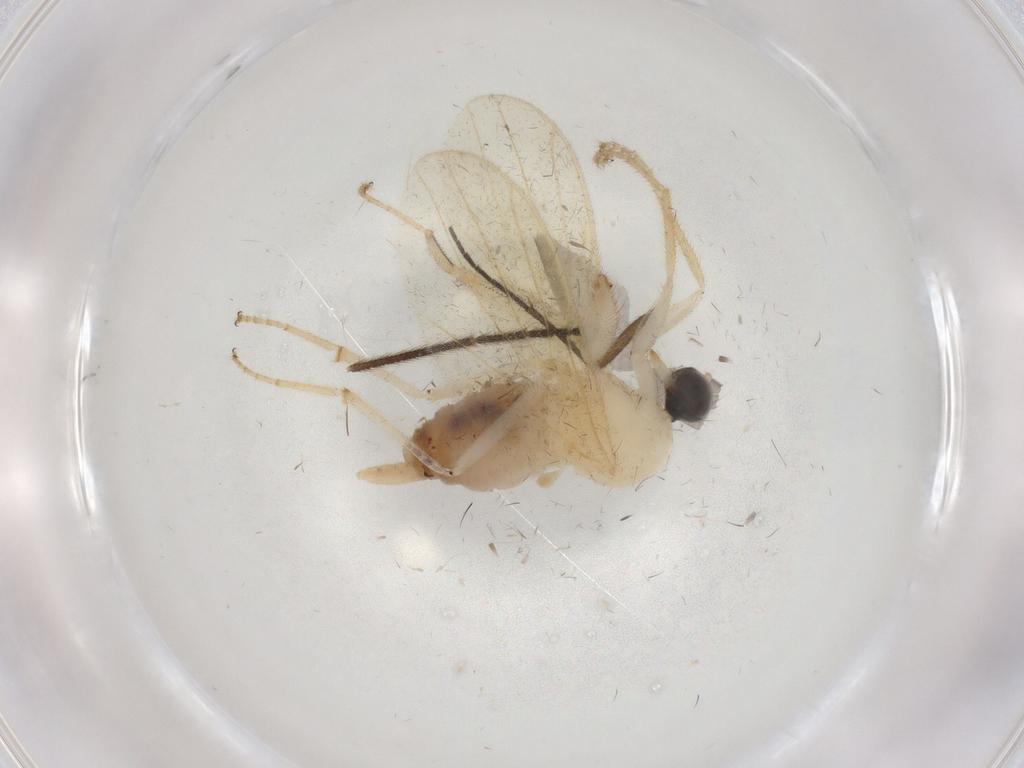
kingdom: Animalia
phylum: Arthropoda
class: Insecta
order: Diptera
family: Hybotidae
